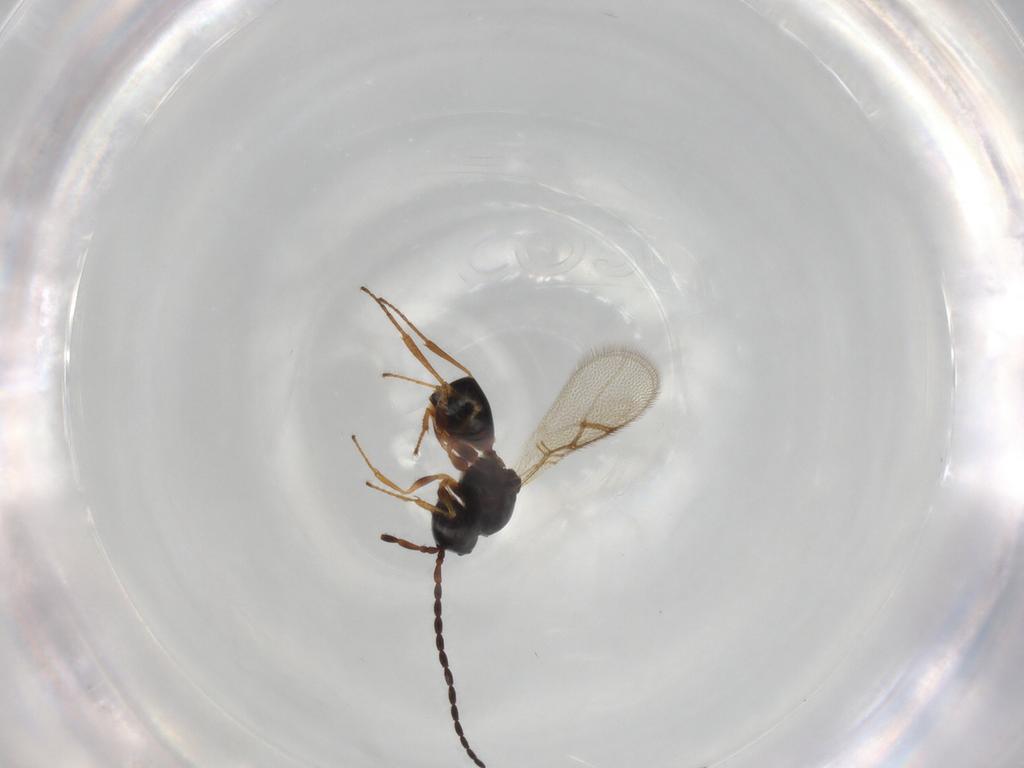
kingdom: Animalia
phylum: Arthropoda
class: Insecta
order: Hymenoptera
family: Figitidae
